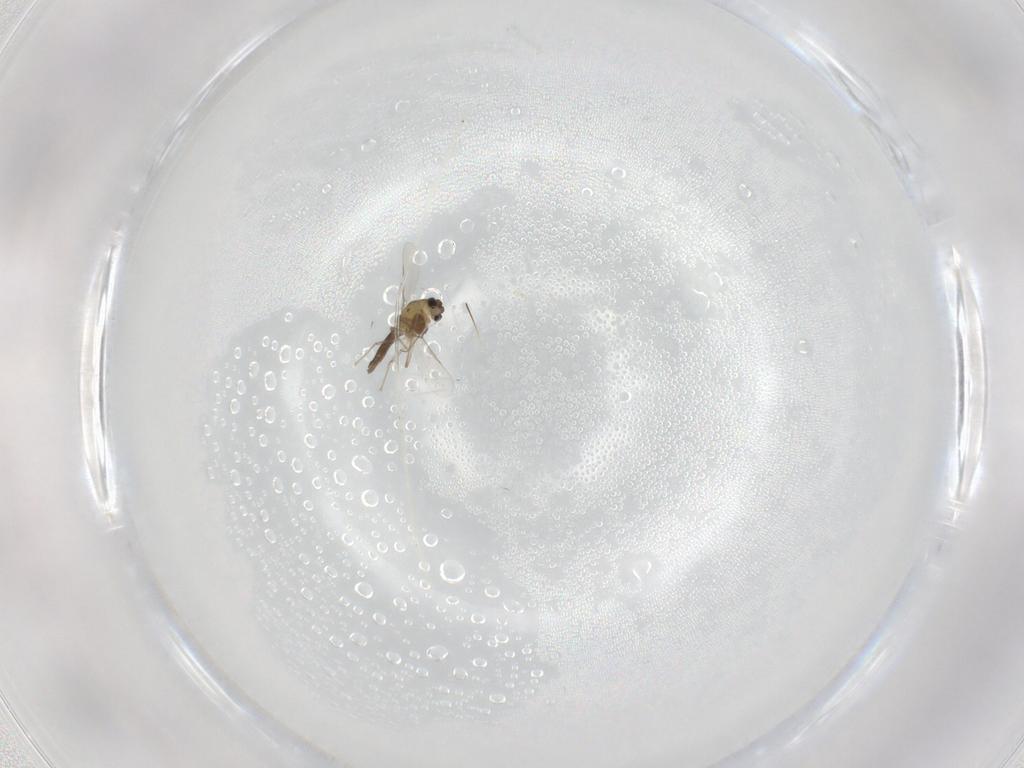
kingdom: Animalia
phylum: Arthropoda
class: Insecta
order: Diptera
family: Chironomidae
